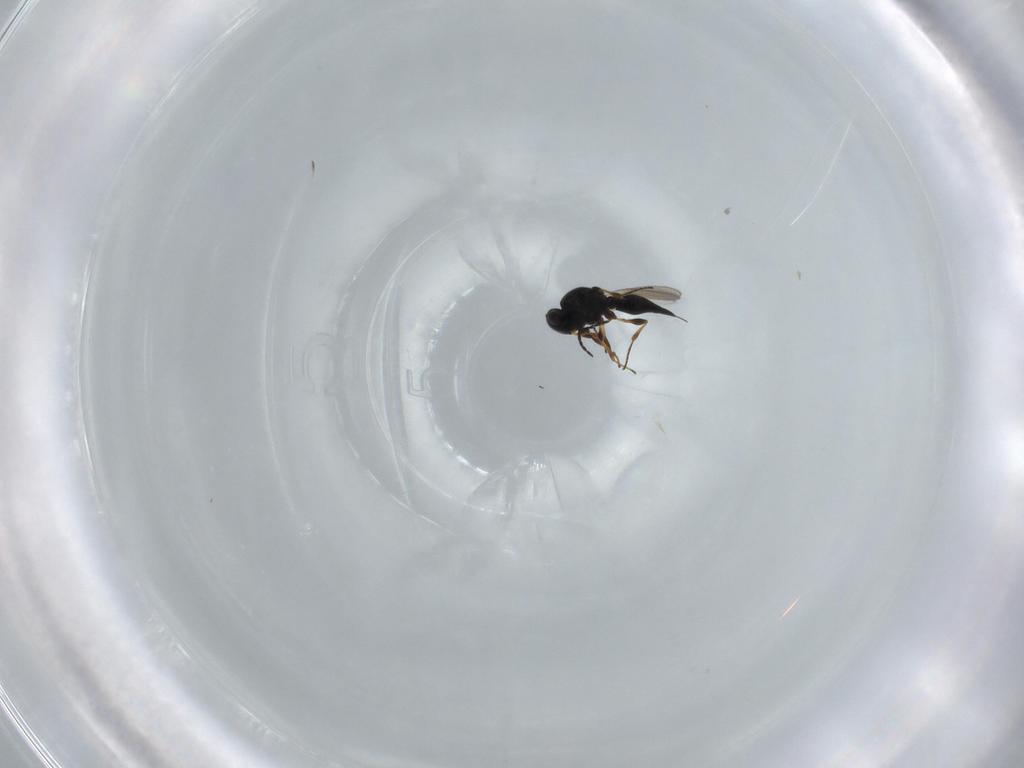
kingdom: Animalia
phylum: Arthropoda
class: Insecta
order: Hymenoptera
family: Platygastridae
